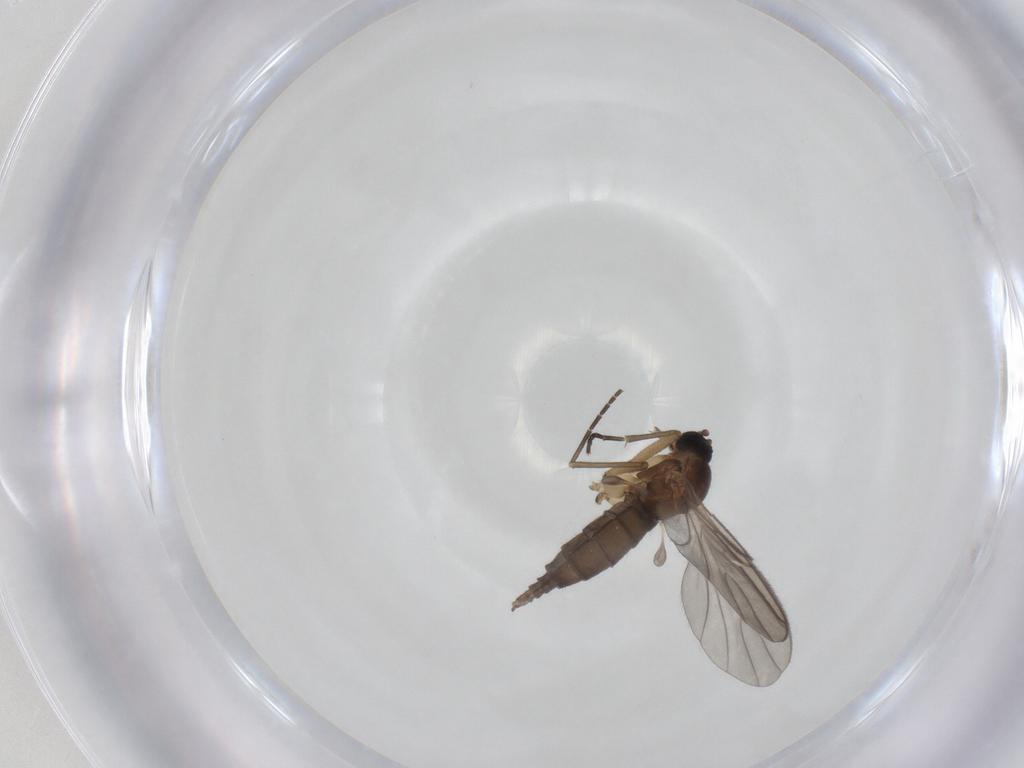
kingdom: Animalia
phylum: Arthropoda
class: Insecta
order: Diptera
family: Sciaridae
